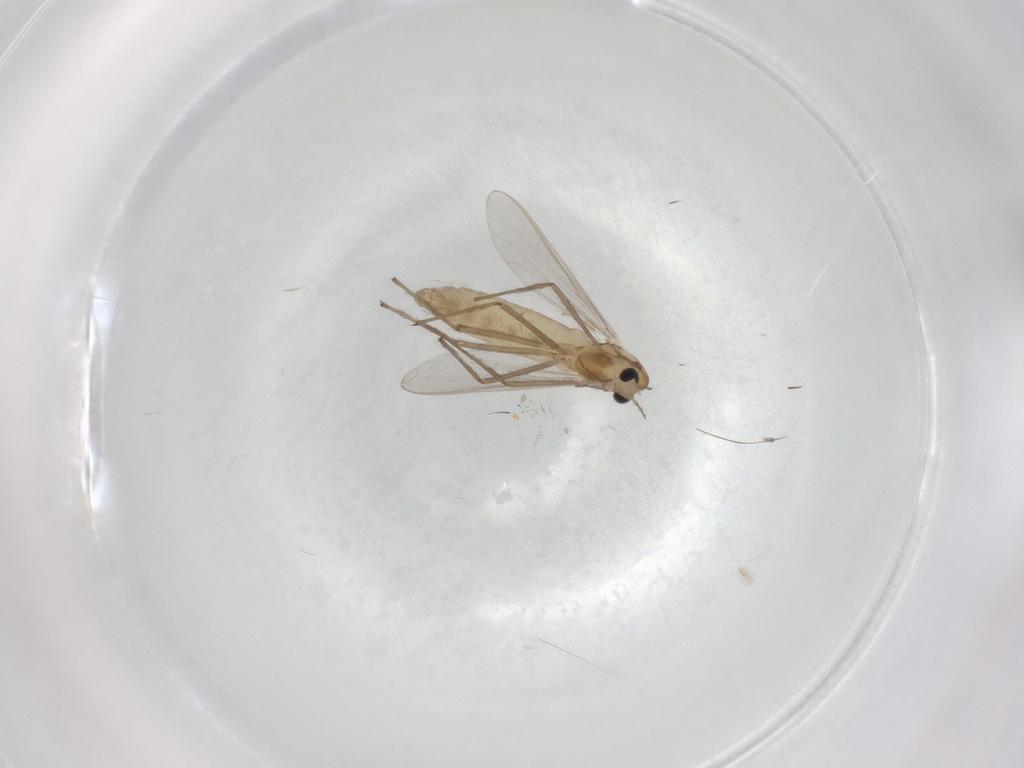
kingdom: Animalia
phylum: Arthropoda
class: Insecta
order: Diptera
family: Chironomidae
